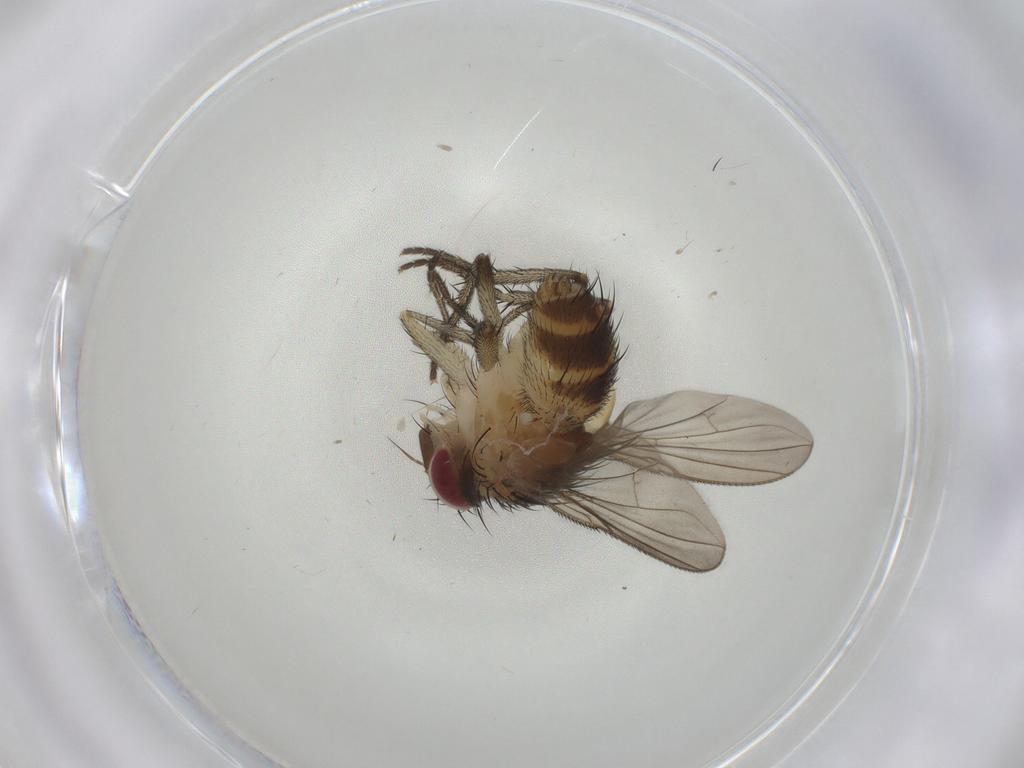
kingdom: Animalia
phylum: Arthropoda
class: Insecta
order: Diptera
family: Tachinidae
